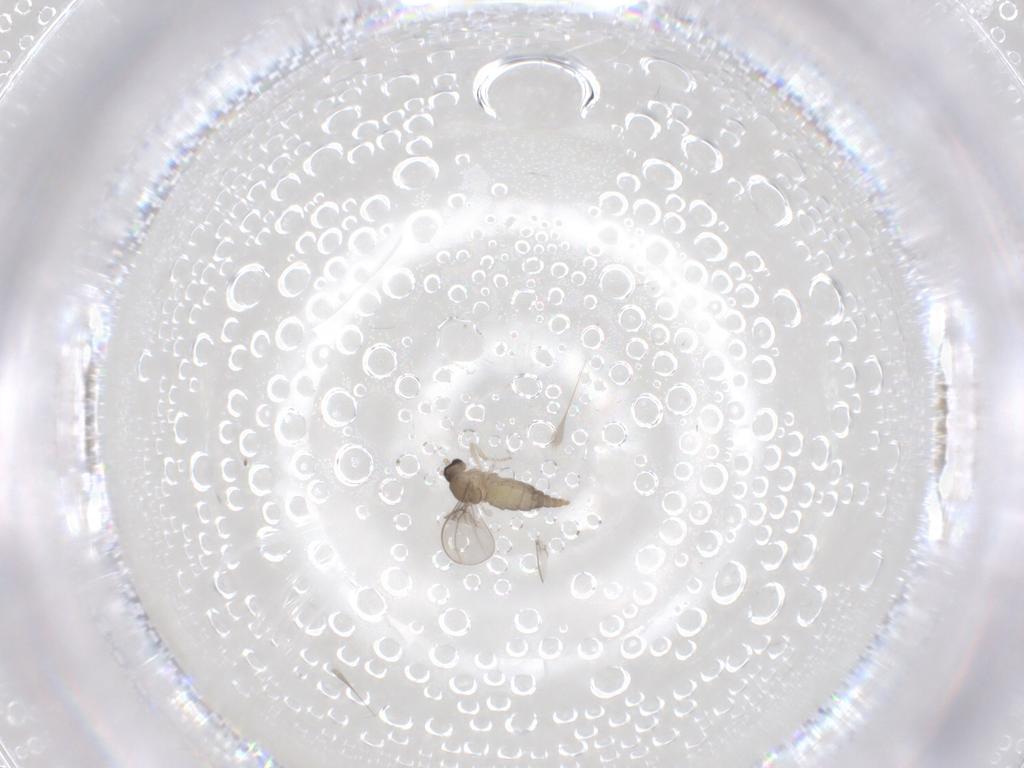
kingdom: Animalia
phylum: Arthropoda
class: Insecta
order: Diptera
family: Cecidomyiidae
